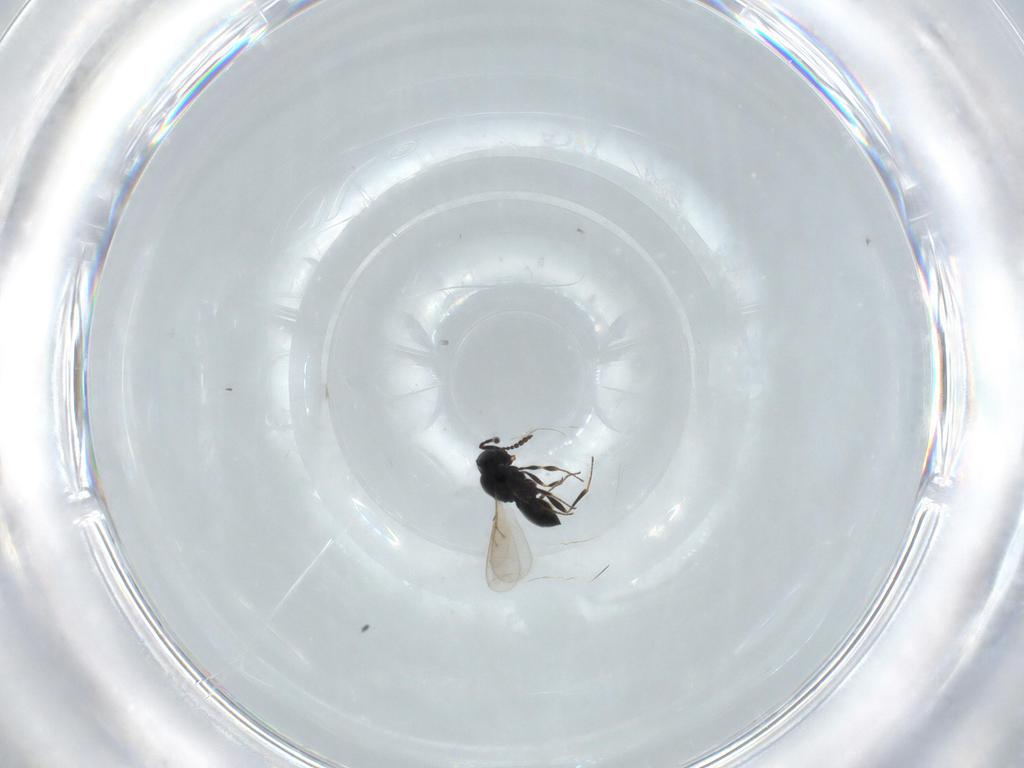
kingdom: Animalia
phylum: Arthropoda
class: Insecta
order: Hymenoptera
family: Scelionidae
